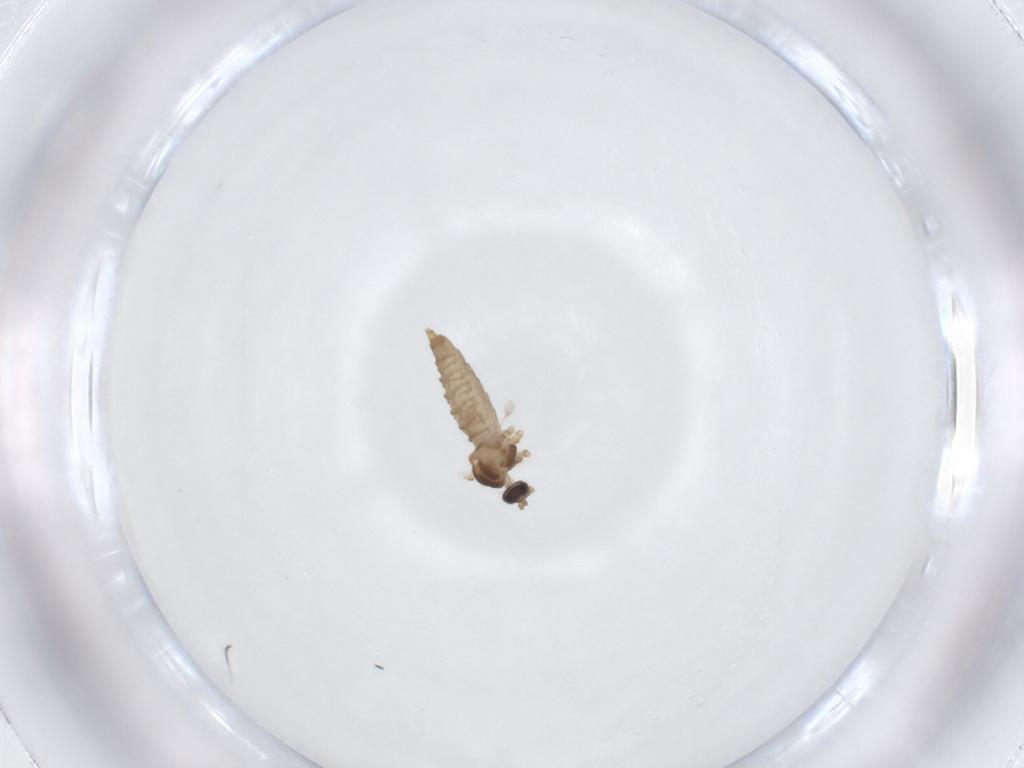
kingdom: Animalia
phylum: Arthropoda
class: Insecta
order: Diptera
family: Cecidomyiidae
